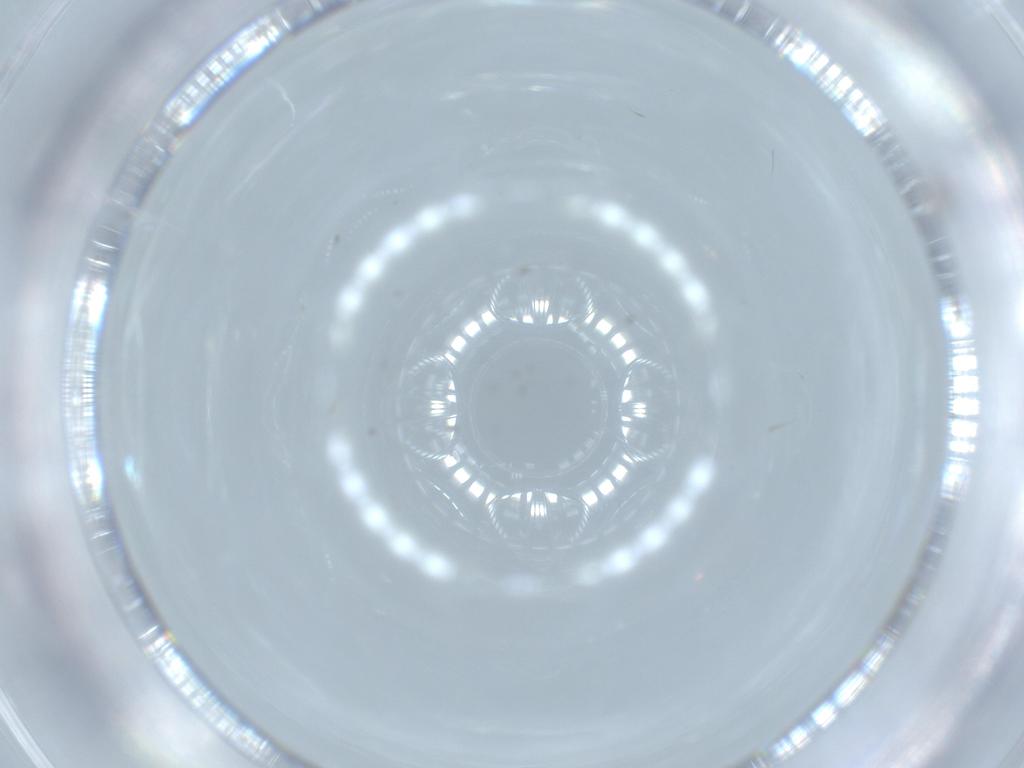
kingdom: Animalia
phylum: Arthropoda
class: Insecta
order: Hymenoptera
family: Signiphoridae
